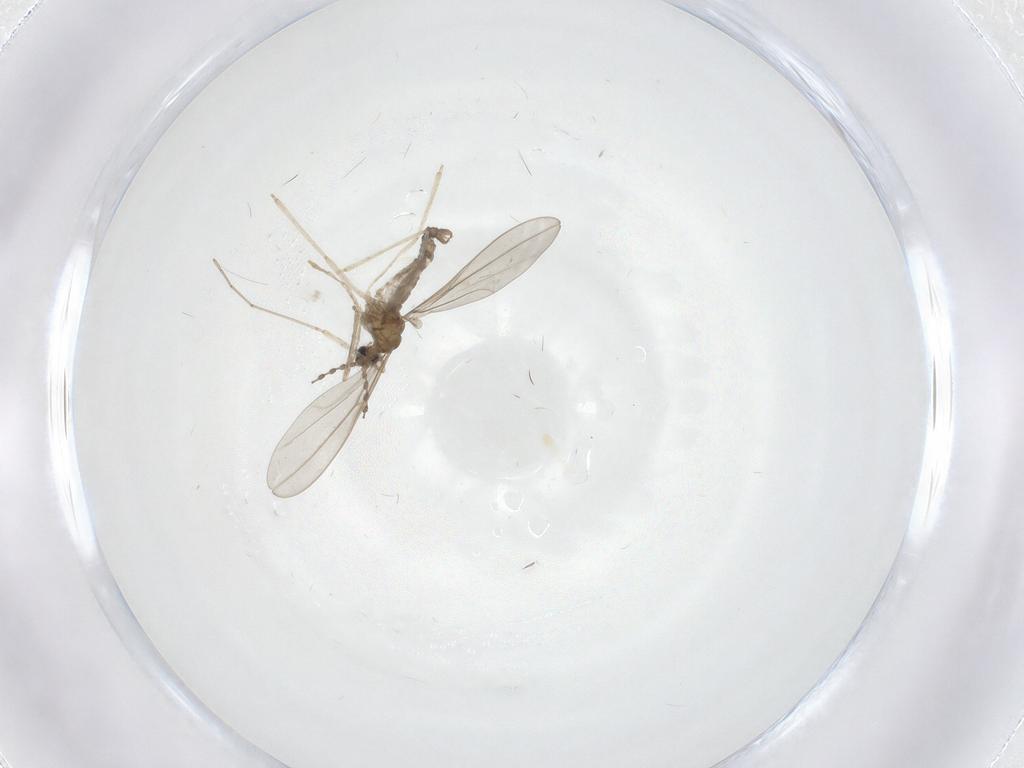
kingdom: Animalia
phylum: Arthropoda
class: Insecta
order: Diptera
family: Cecidomyiidae
